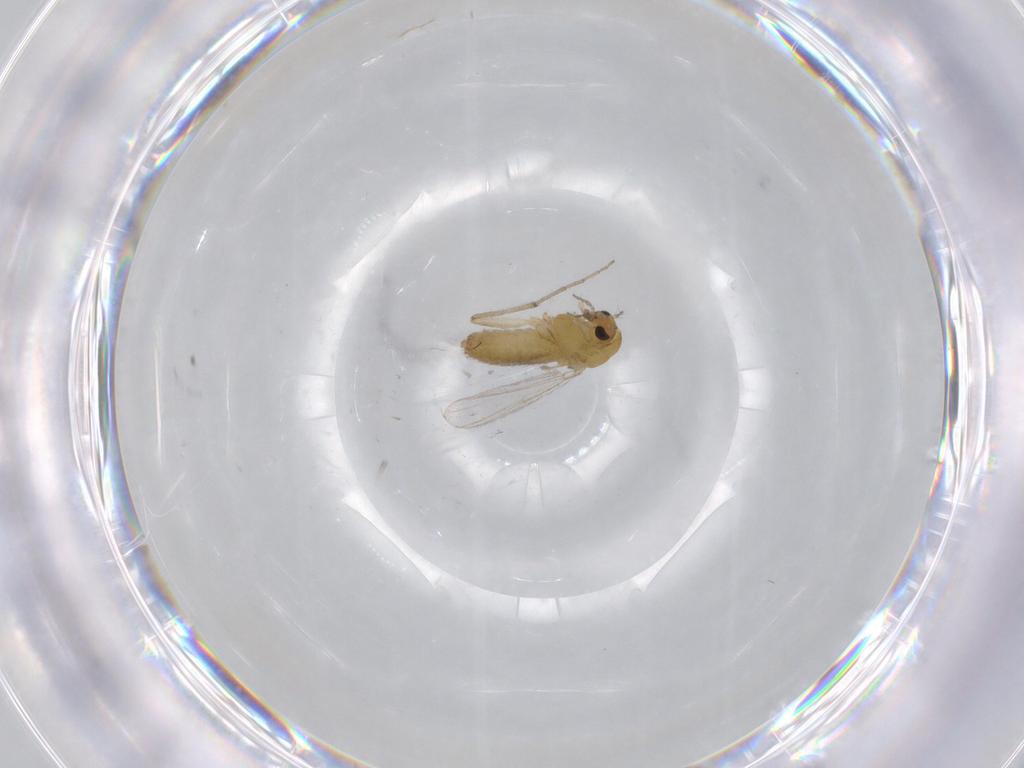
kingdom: Animalia
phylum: Arthropoda
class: Insecta
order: Diptera
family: Chironomidae
